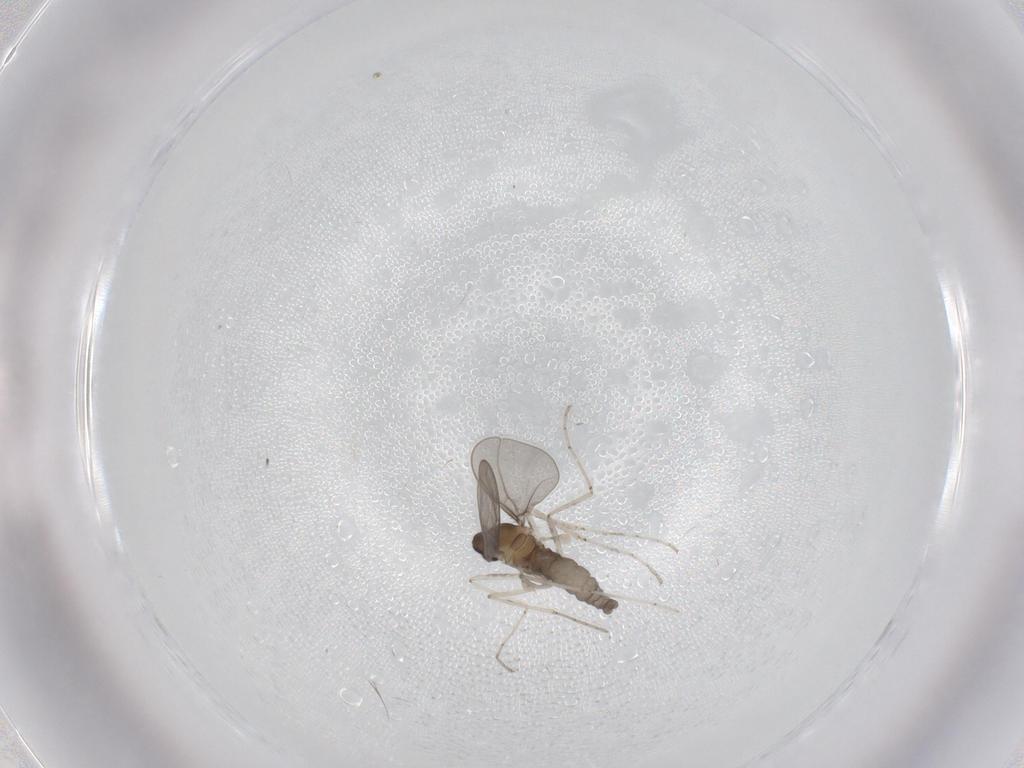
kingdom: Animalia
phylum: Arthropoda
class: Insecta
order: Diptera
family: Cecidomyiidae
